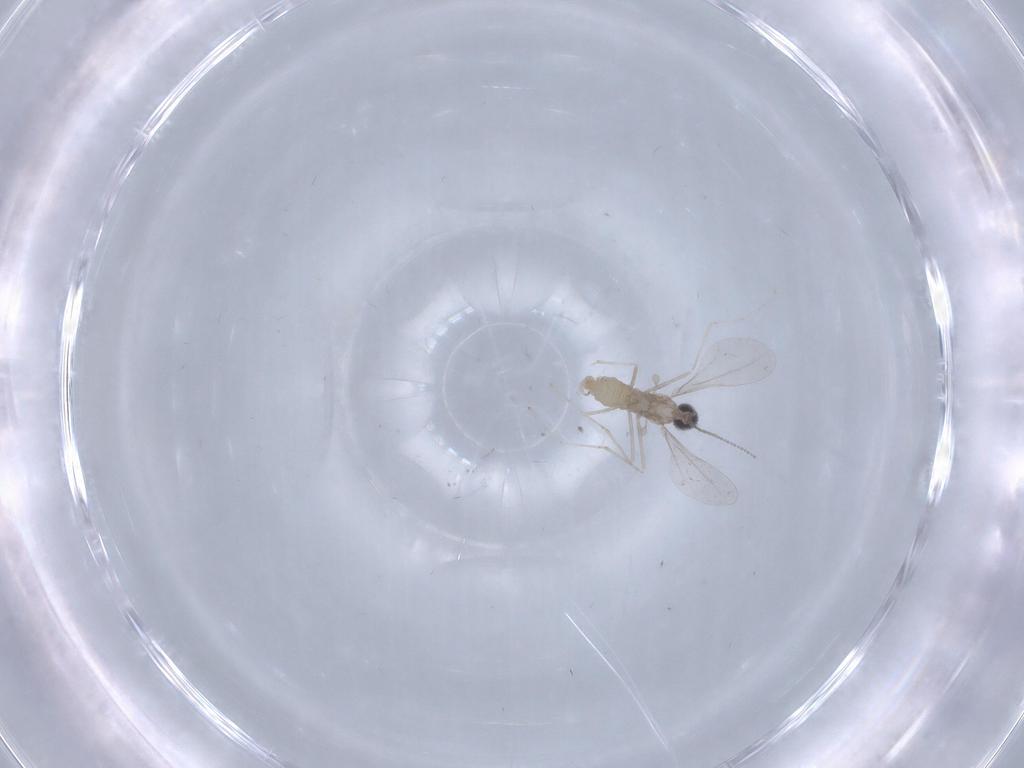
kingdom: Animalia
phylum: Arthropoda
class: Insecta
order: Diptera
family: Cecidomyiidae
